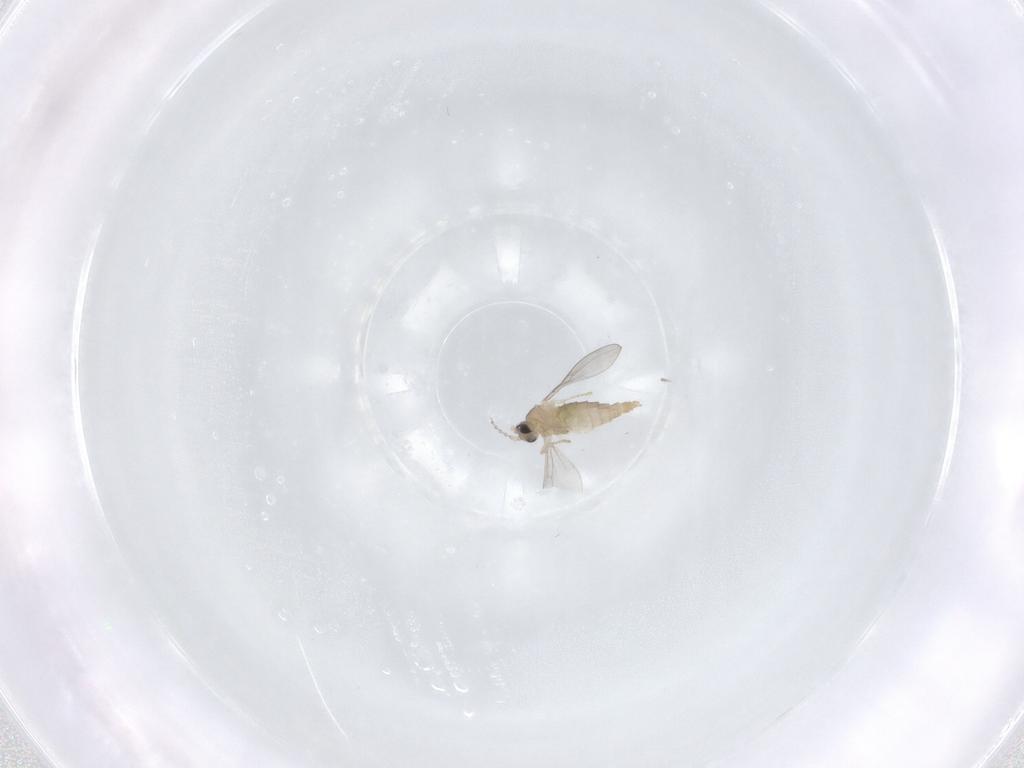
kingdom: Animalia
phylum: Arthropoda
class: Insecta
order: Diptera
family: Cecidomyiidae
